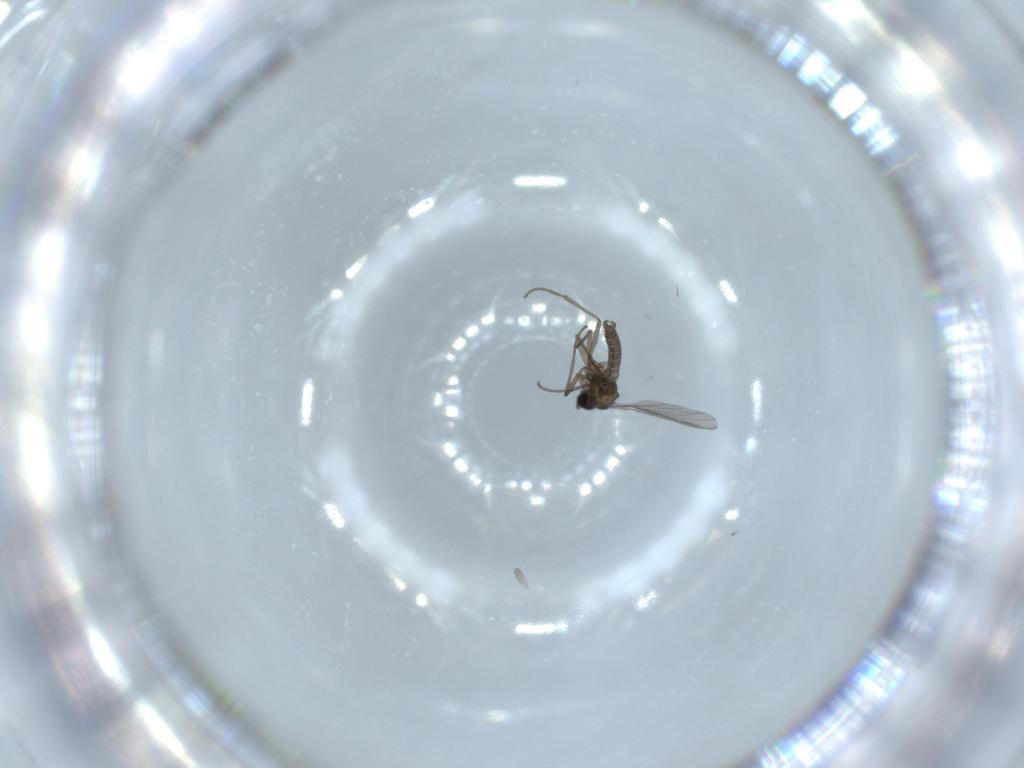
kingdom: Animalia
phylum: Arthropoda
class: Insecta
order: Diptera
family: Sciaridae
